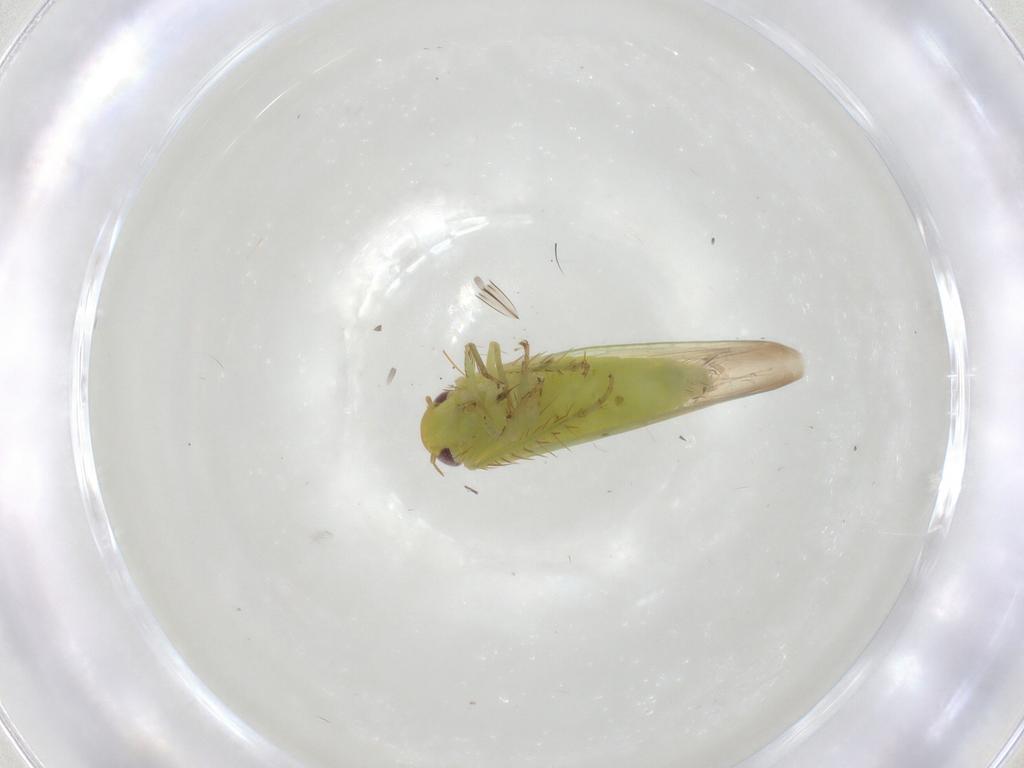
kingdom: Animalia
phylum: Arthropoda
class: Insecta
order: Hemiptera
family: Cicadellidae
